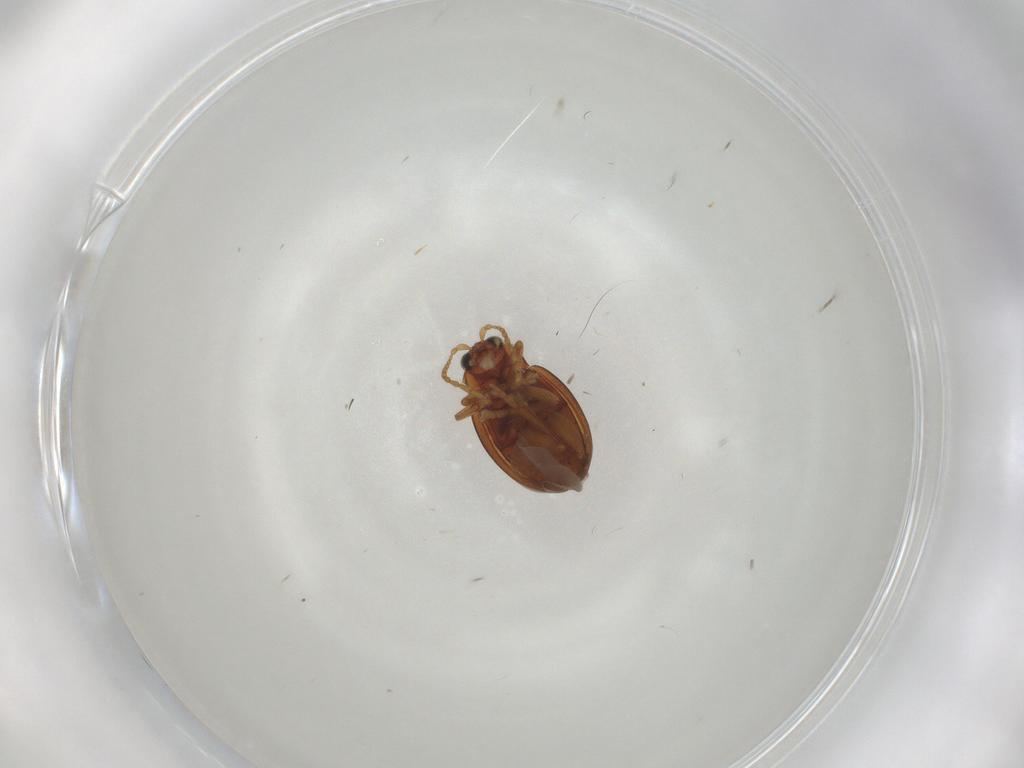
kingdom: Animalia
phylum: Arthropoda
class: Insecta
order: Coleoptera
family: Chrysomelidae
